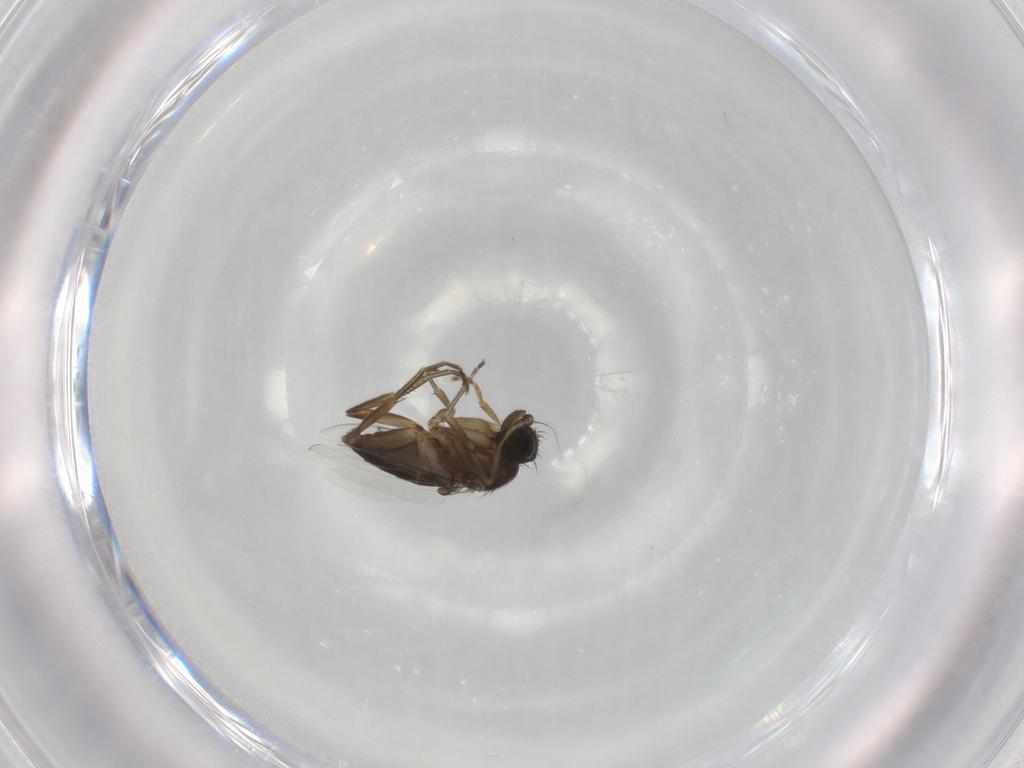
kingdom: Animalia
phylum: Arthropoda
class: Insecta
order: Diptera
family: Phoridae
